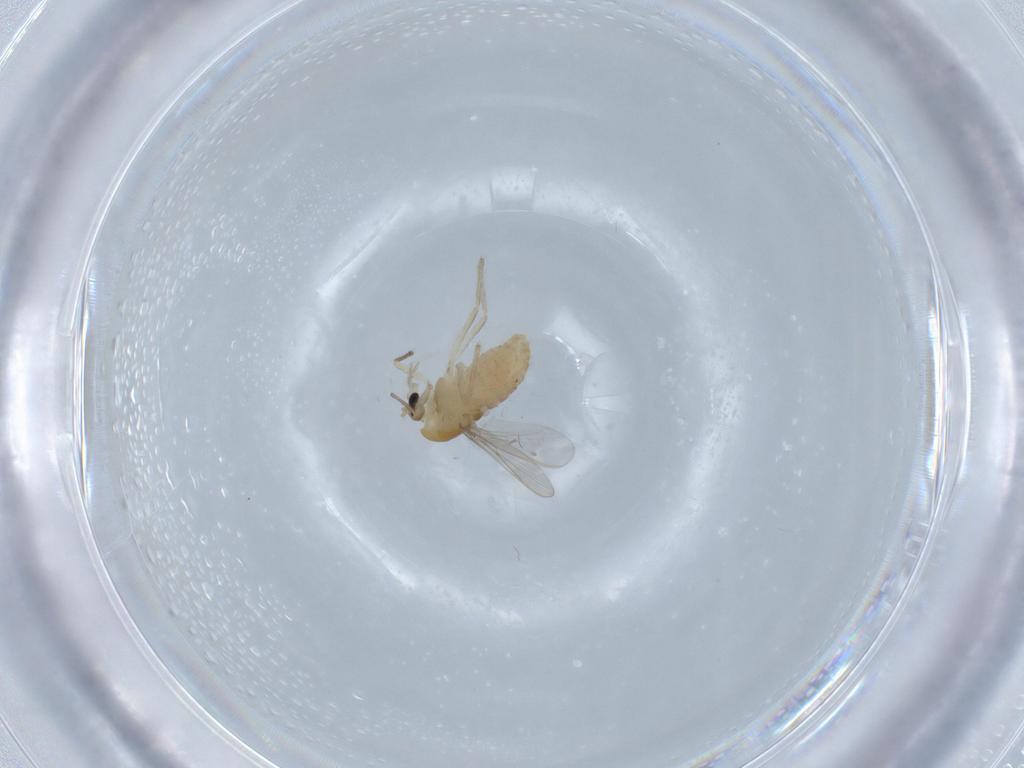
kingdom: Animalia
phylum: Arthropoda
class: Insecta
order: Diptera
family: Chironomidae
